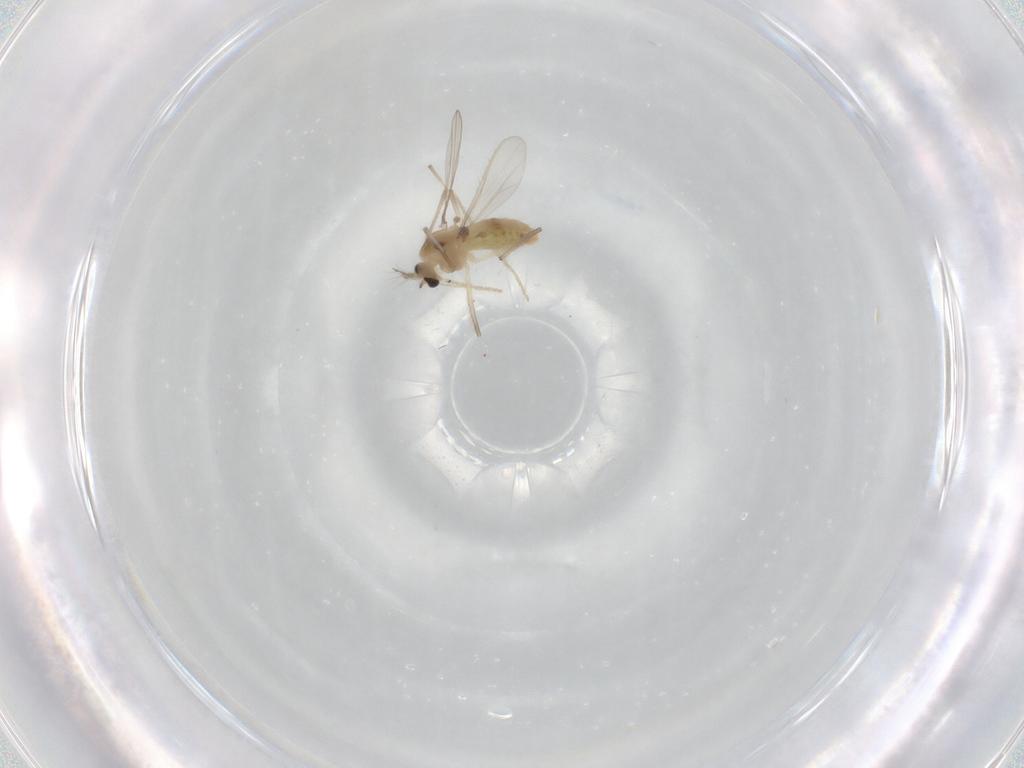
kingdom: Animalia
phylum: Arthropoda
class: Insecta
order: Diptera
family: Chironomidae
